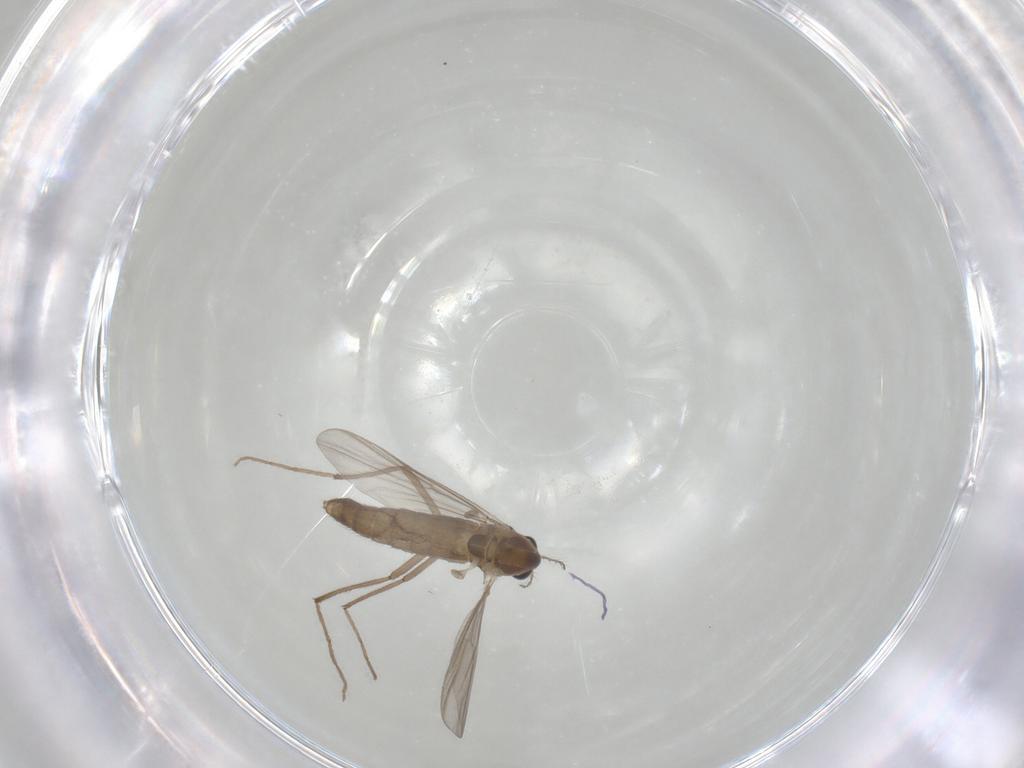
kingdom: Animalia
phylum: Arthropoda
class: Insecta
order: Diptera
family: Chironomidae
